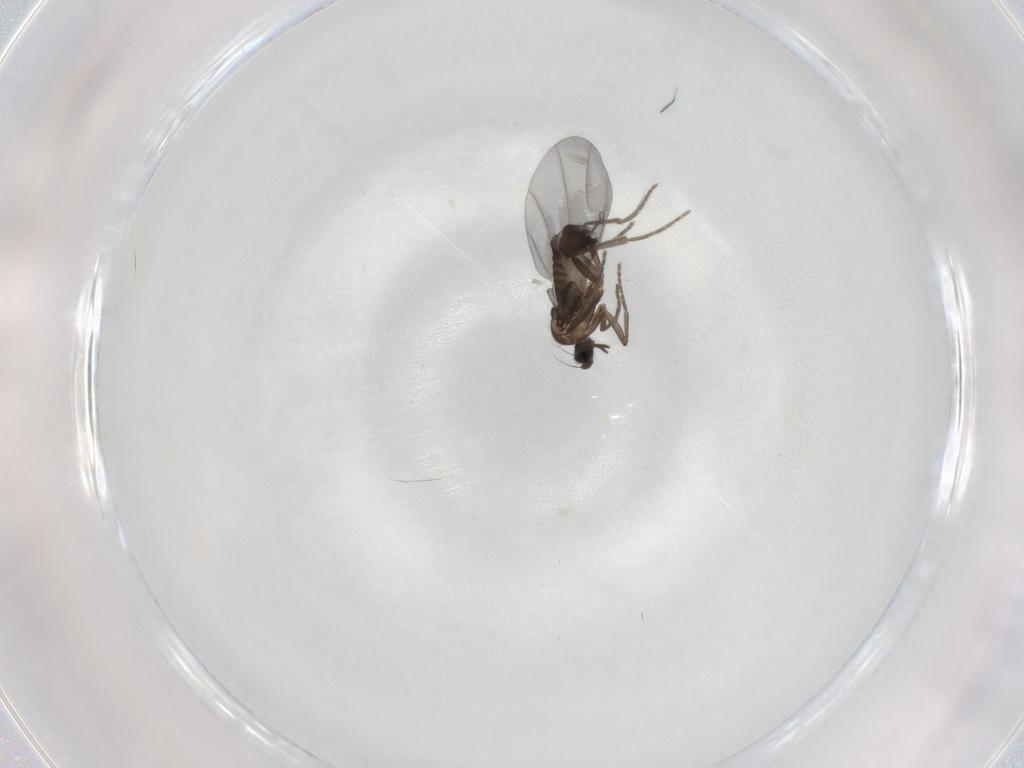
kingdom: Animalia
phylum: Arthropoda
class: Insecta
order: Diptera
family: Phoridae
